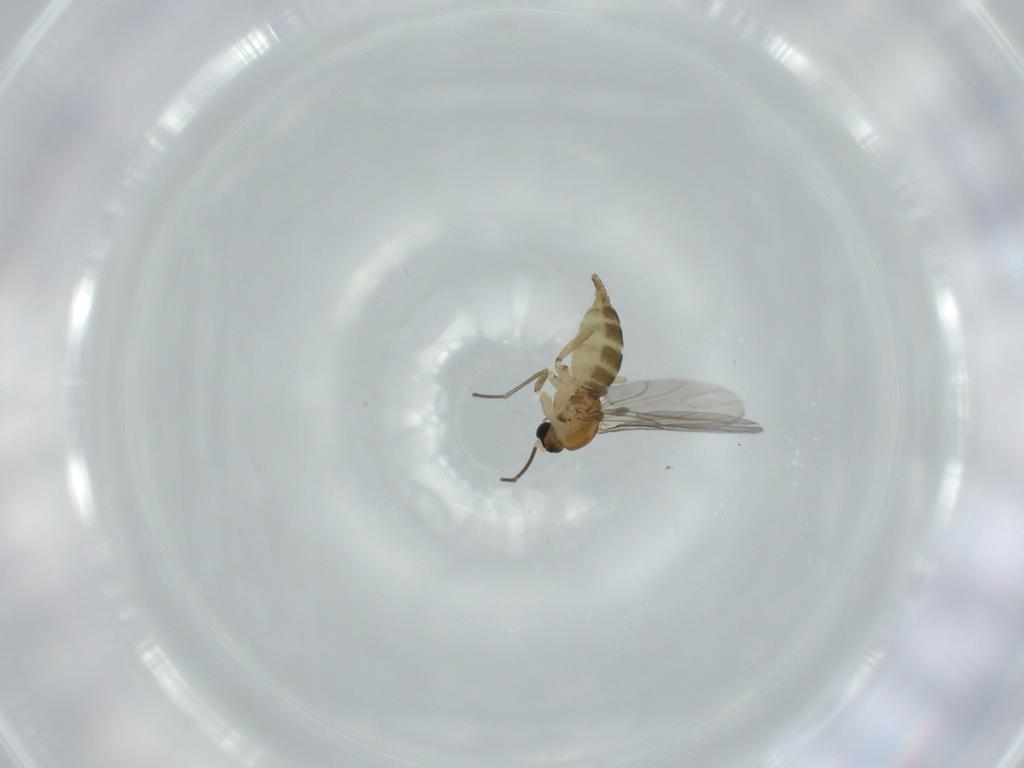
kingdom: Animalia
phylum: Arthropoda
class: Insecta
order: Diptera
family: Sciaridae
